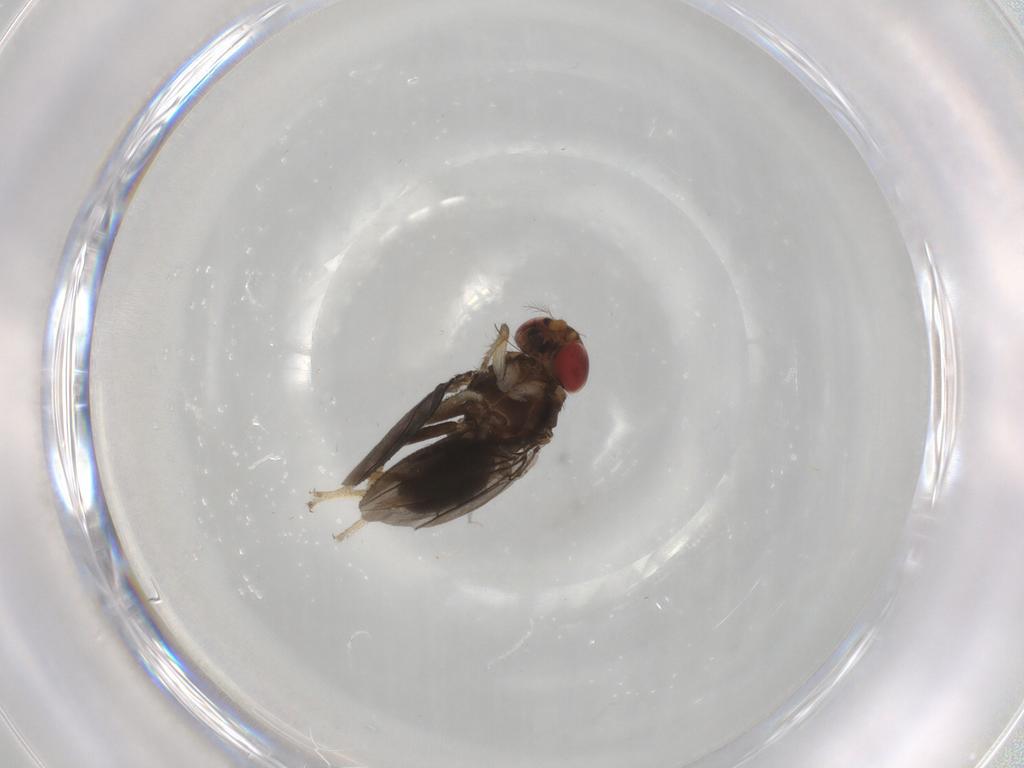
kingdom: Animalia
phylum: Arthropoda
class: Insecta
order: Diptera
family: Drosophilidae
